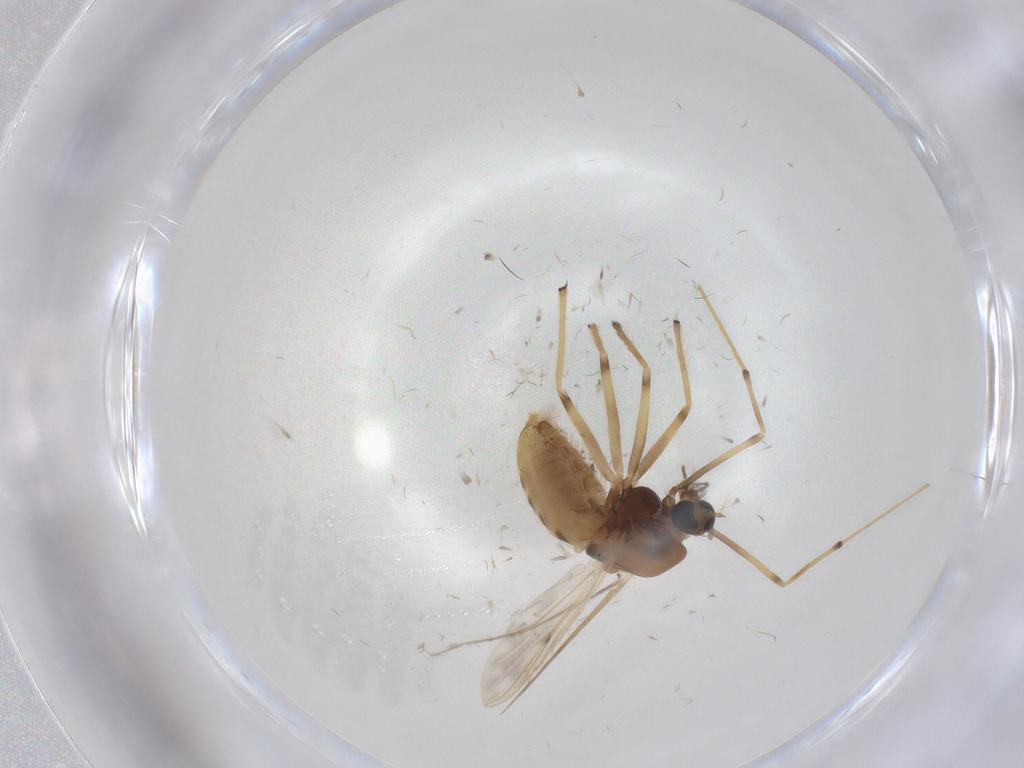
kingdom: Animalia
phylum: Arthropoda
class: Insecta
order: Diptera
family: Chironomidae
